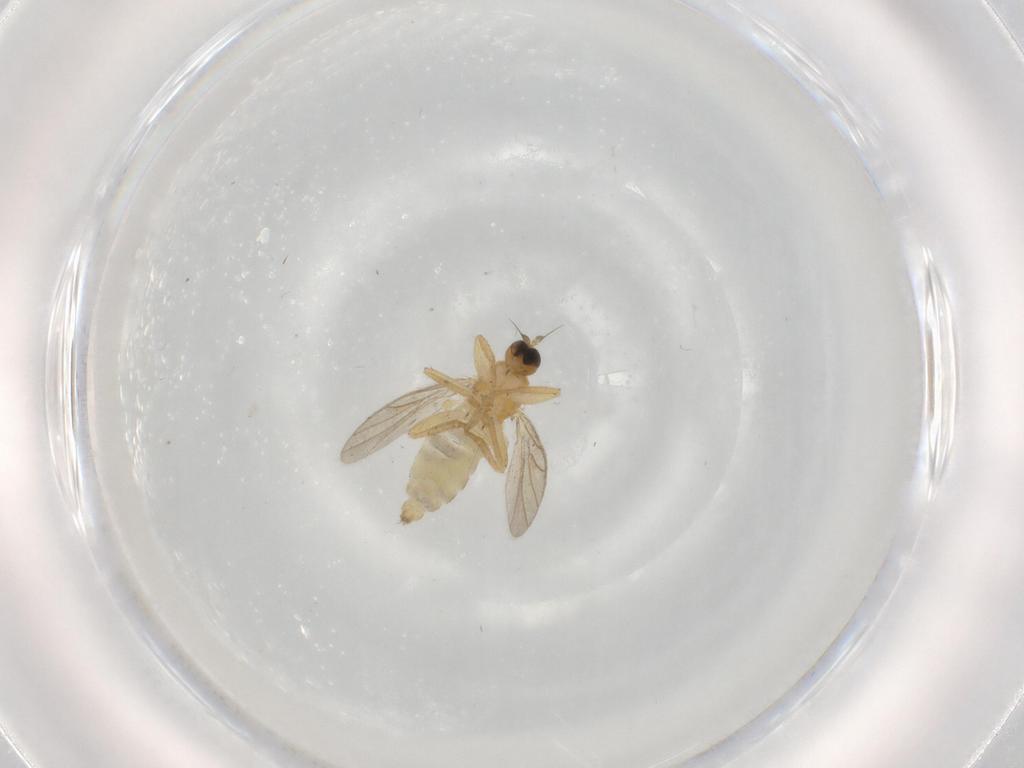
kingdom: Animalia
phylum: Arthropoda
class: Insecta
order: Diptera
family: Hybotidae
